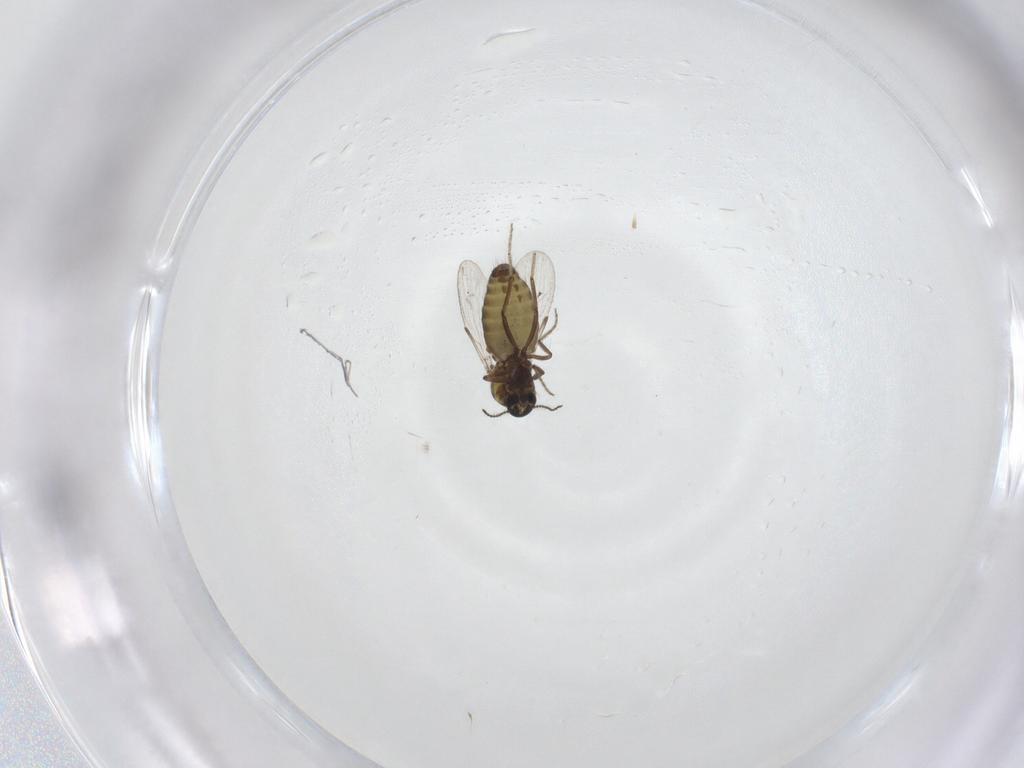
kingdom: Animalia
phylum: Arthropoda
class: Insecta
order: Diptera
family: Ceratopogonidae
